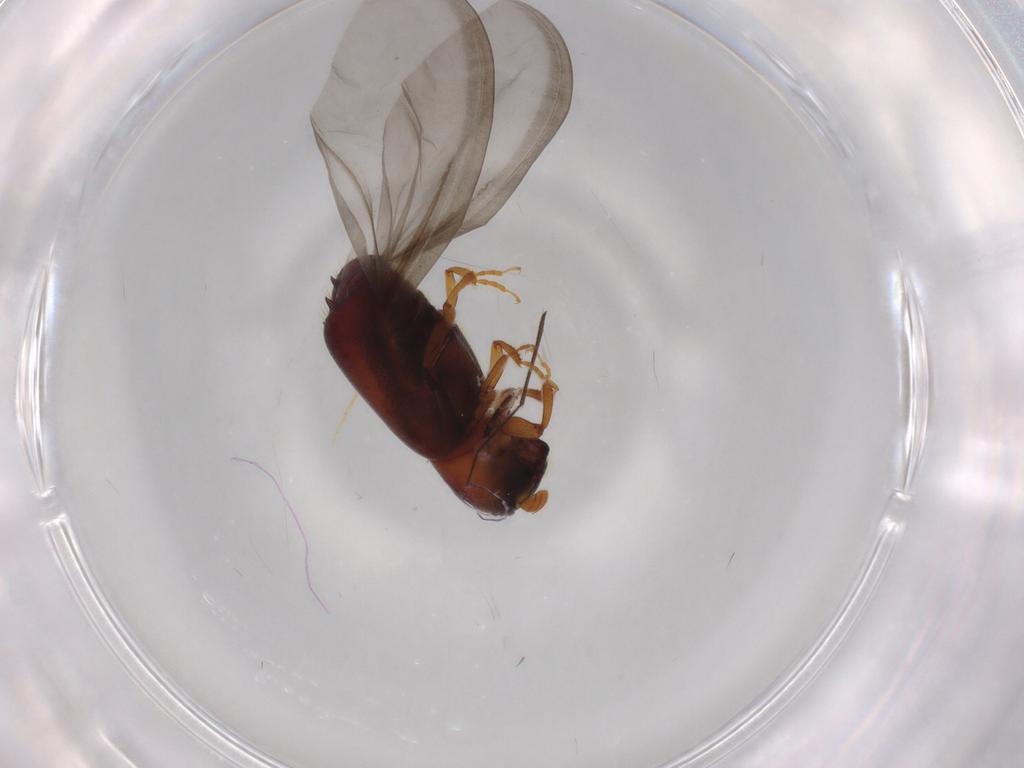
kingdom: Animalia
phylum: Arthropoda
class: Insecta
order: Coleoptera
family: Curculionidae
